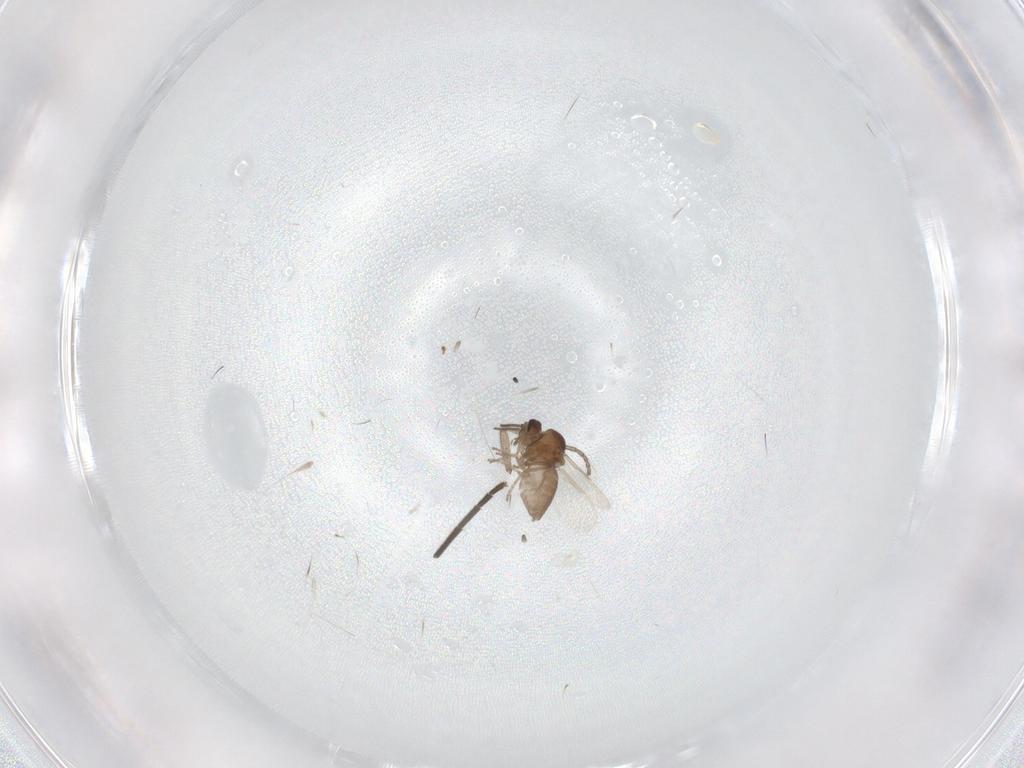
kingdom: Animalia
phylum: Arthropoda
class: Insecta
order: Diptera
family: Ceratopogonidae
